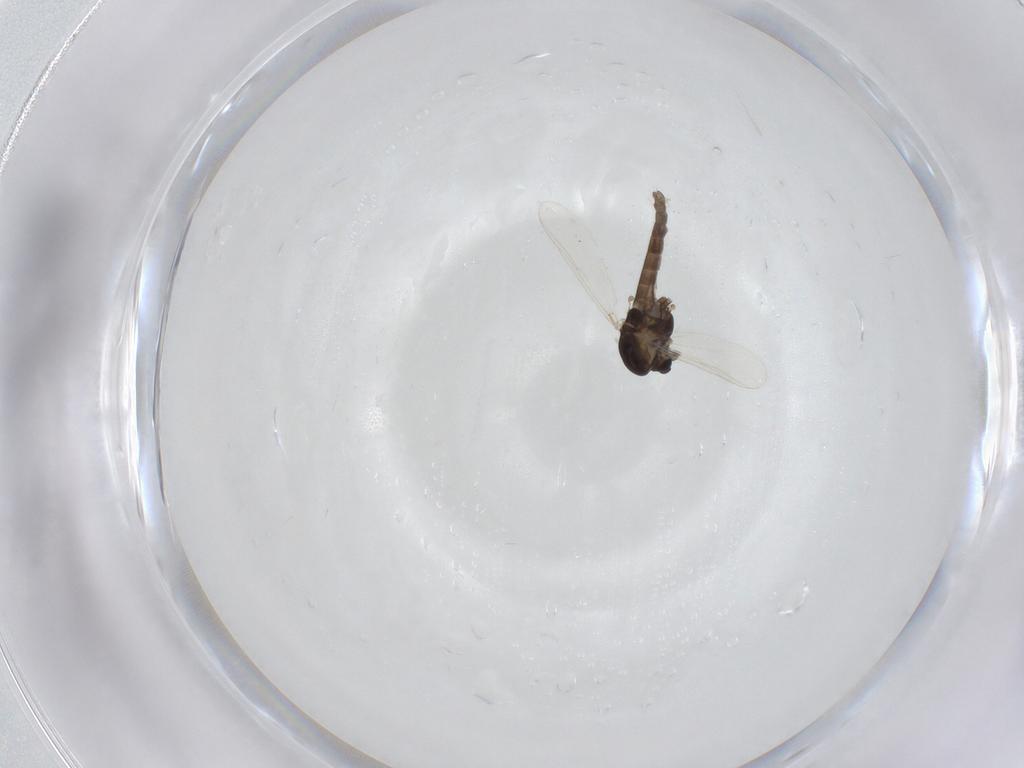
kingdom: Animalia
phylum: Arthropoda
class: Insecta
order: Diptera
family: Chironomidae
